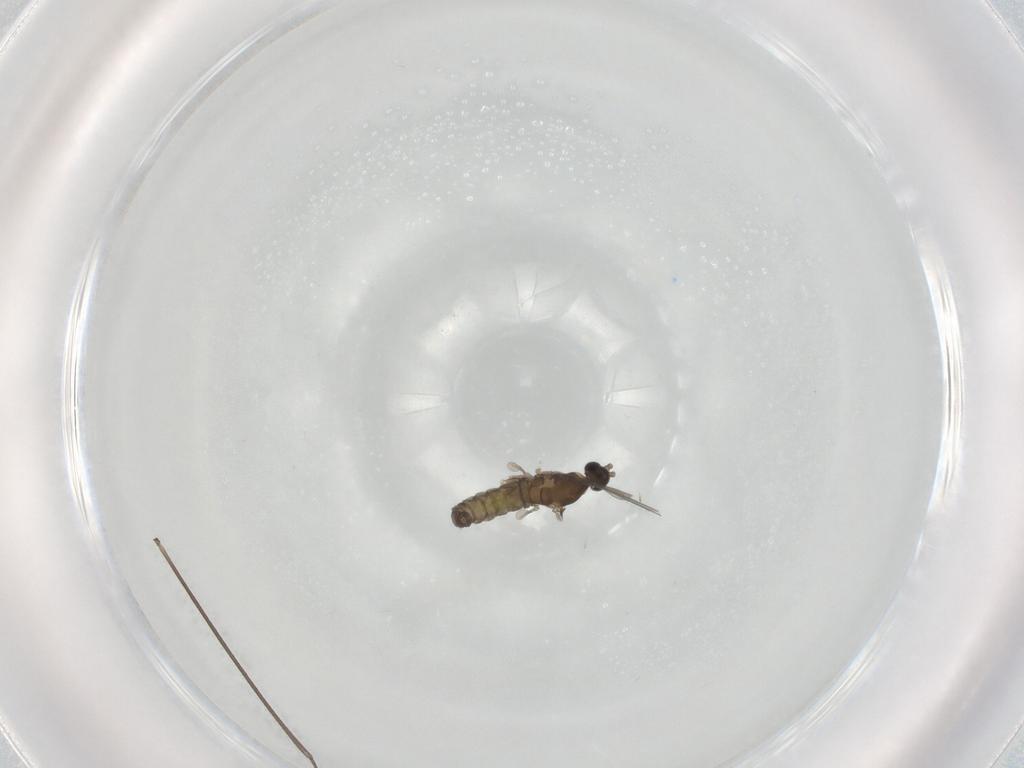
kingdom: Animalia
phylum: Arthropoda
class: Insecta
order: Diptera
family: Cecidomyiidae
